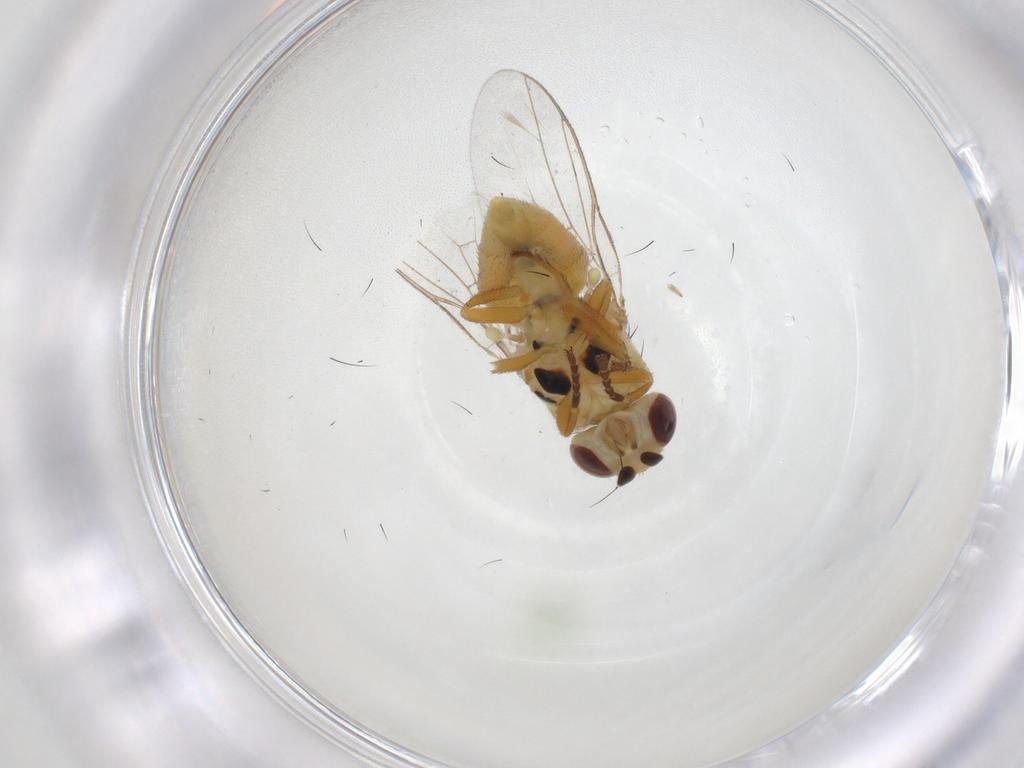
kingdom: Animalia
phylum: Arthropoda
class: Insecta
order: Diptera
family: Chloropidae
